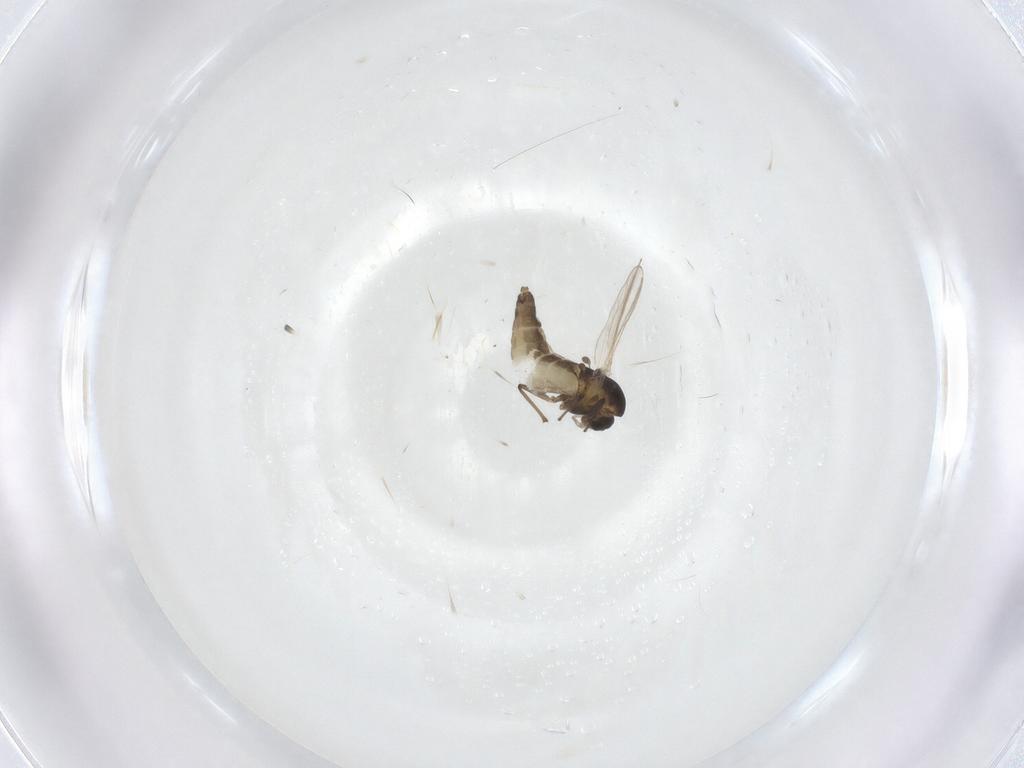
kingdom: Animalia
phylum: Arthropoda
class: Insecta
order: Diptera
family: Chironomidae
